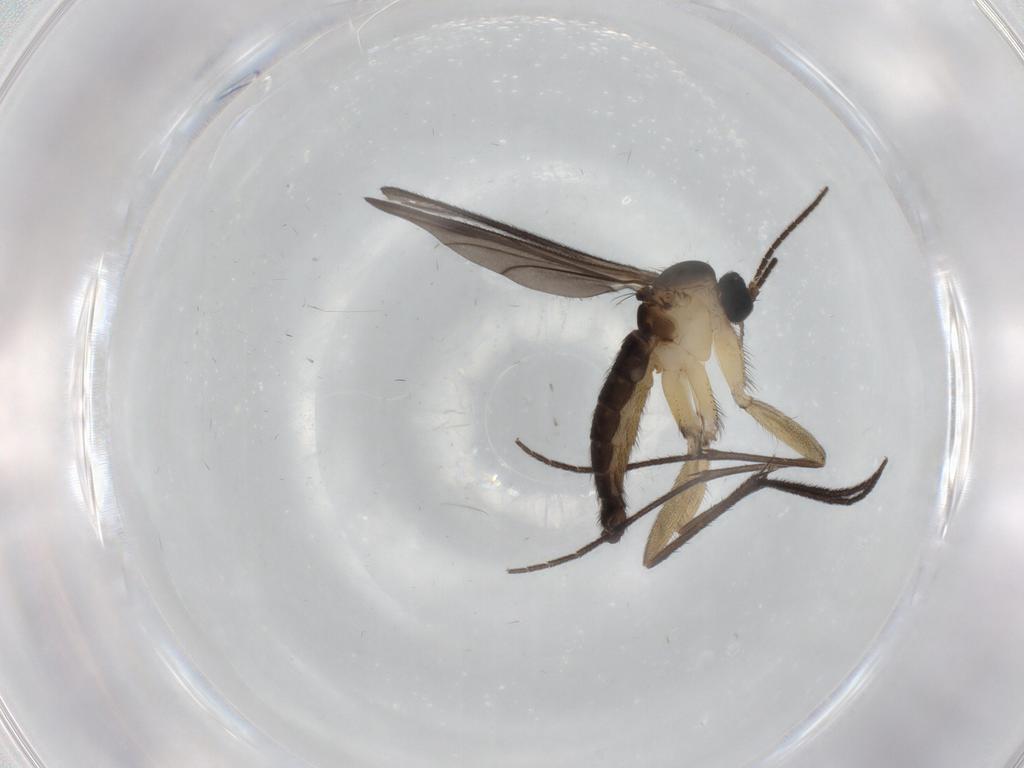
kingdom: Animalia
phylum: Arthropoda
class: Insecta
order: Diptera
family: Sciaridae
